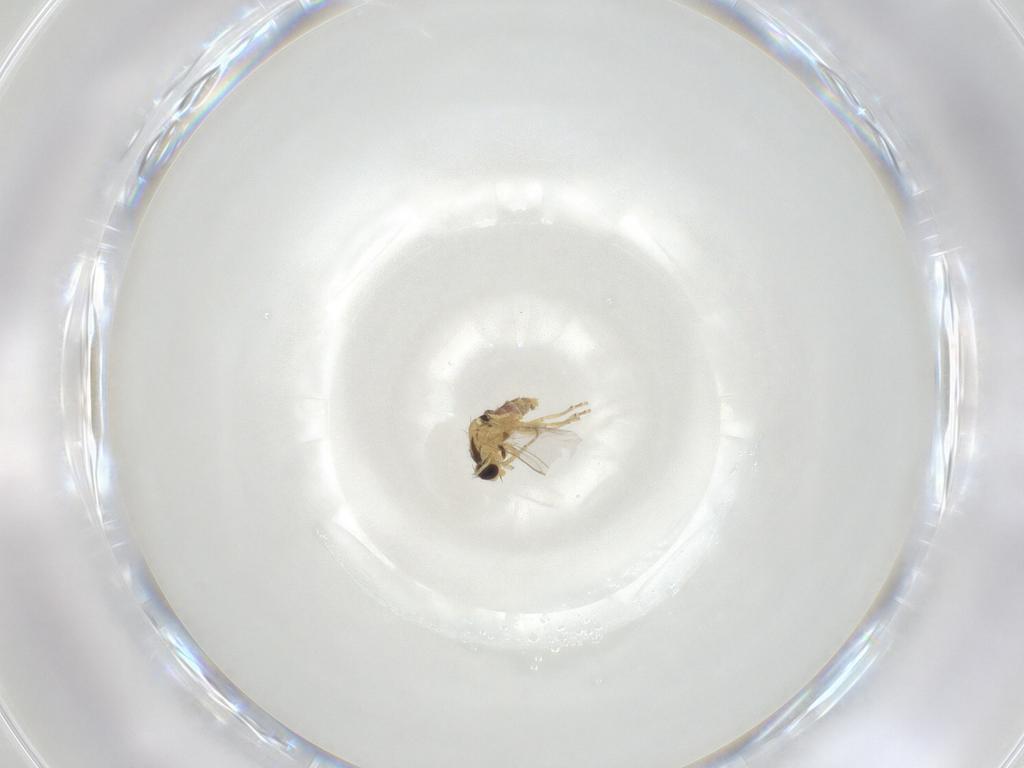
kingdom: Animalia
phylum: Arthropoda
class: Insecta
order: Diptera
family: Agromyzidae
